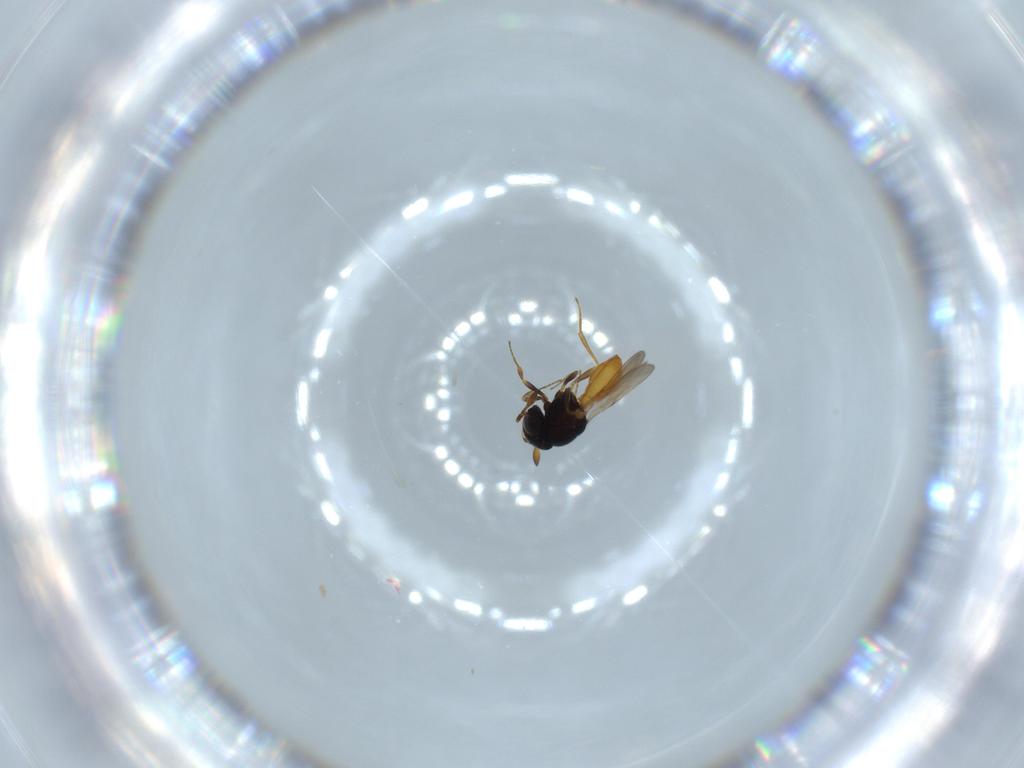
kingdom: Animalia
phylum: Arthropoda
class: Insecta
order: Hymenoptera
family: Scelionidae
